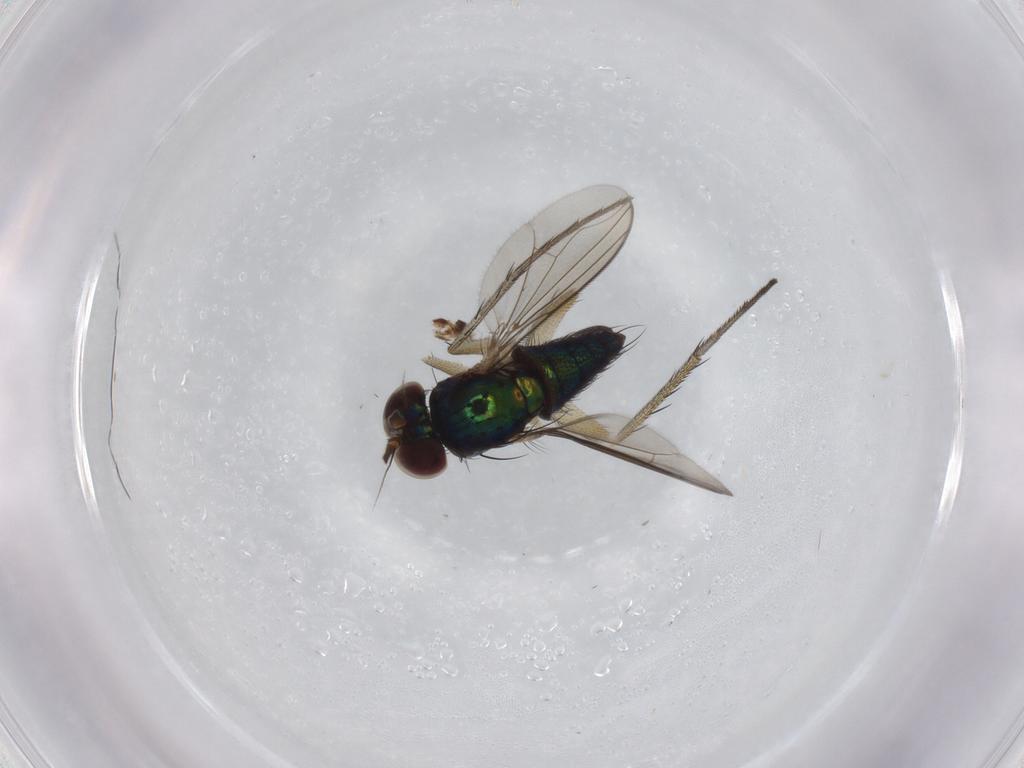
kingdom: Animalia
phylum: Arthropoda
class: Insecta
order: Diptera
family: Dolichopodidae
